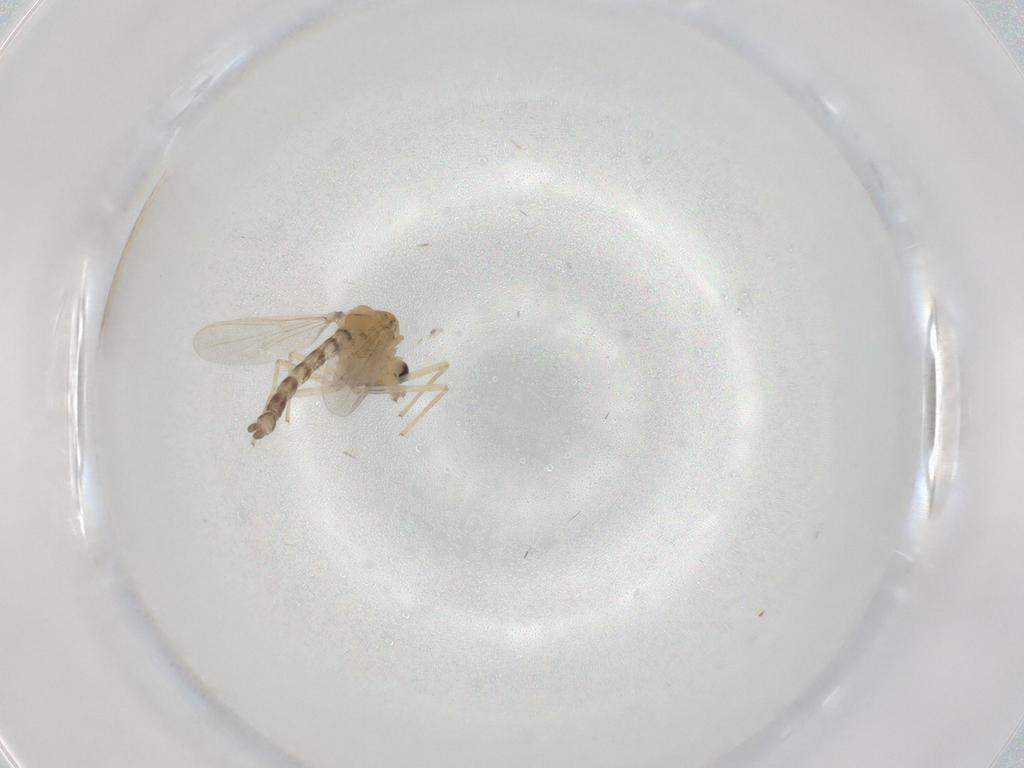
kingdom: Animalia
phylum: Arthropoda
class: Insecta
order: Diptera
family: Chironomidae
